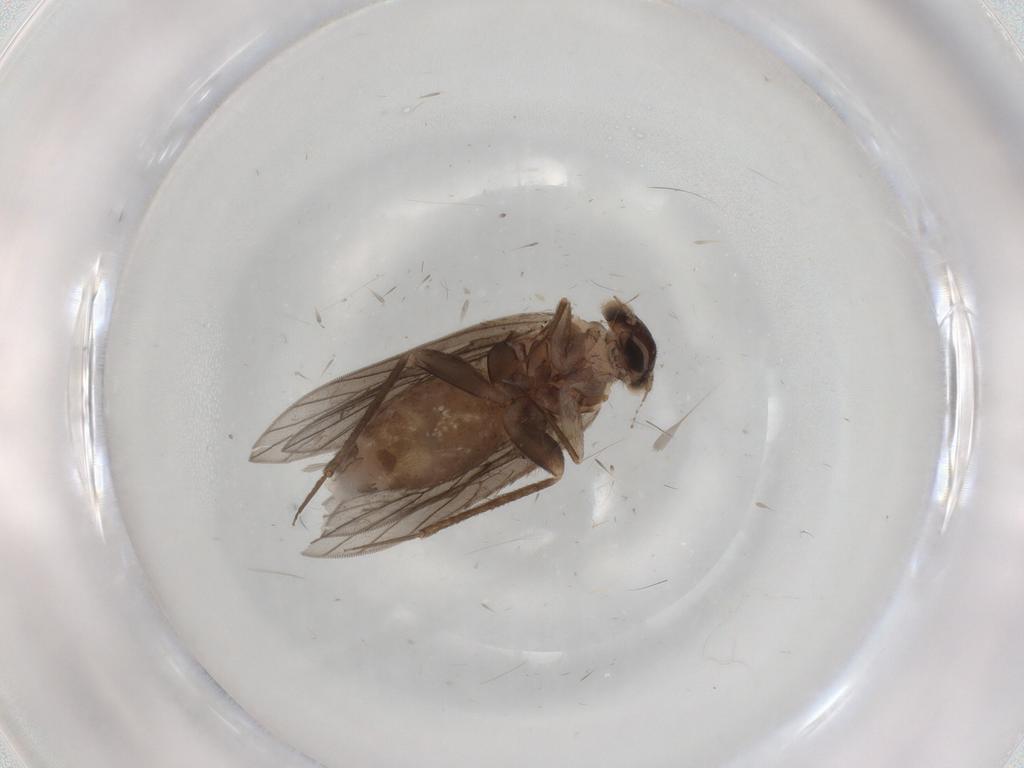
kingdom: Animalia
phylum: Arthropoda
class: Insecta
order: Psocodea
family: Lepidopsocidae
